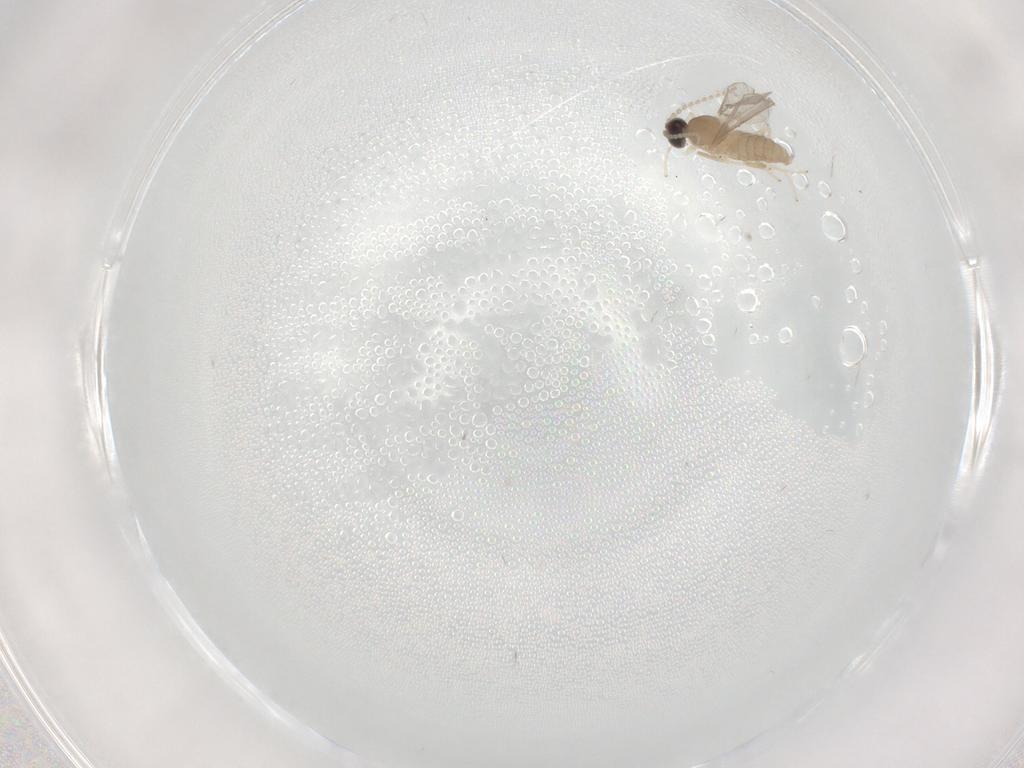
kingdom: Animalia
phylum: Arthropoda
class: Insecta
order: Diptera
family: Cecidomyiidae
